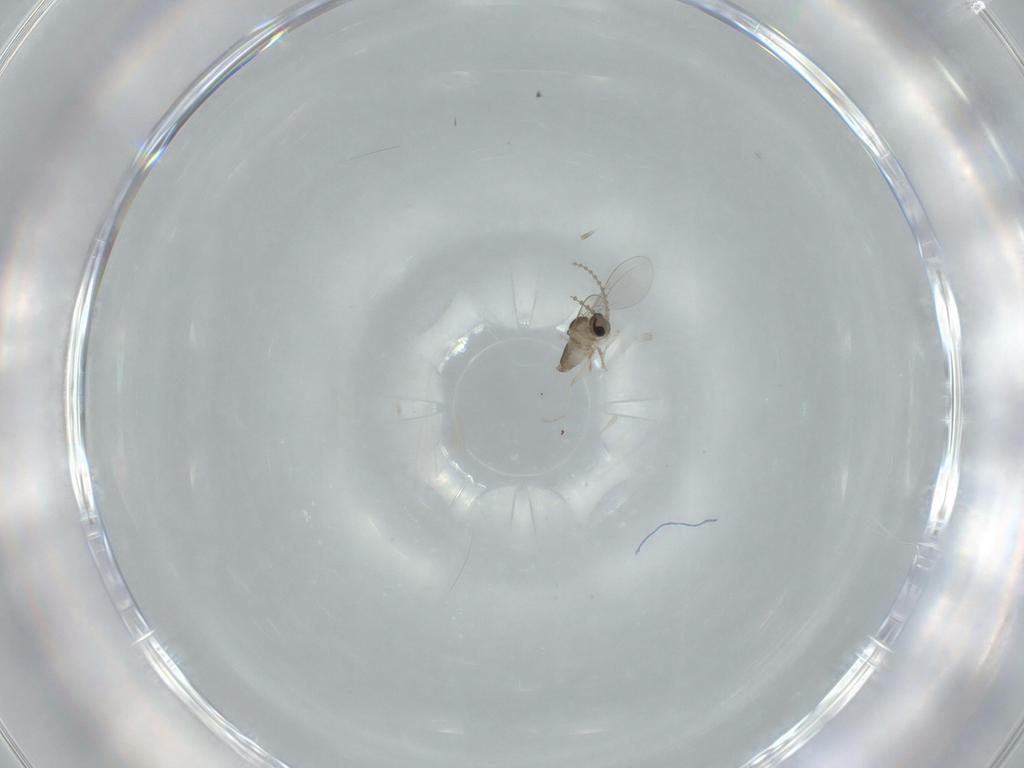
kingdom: Animalia
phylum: Arthropoda
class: Insecta
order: Diptera
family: Cecidomyiidae
